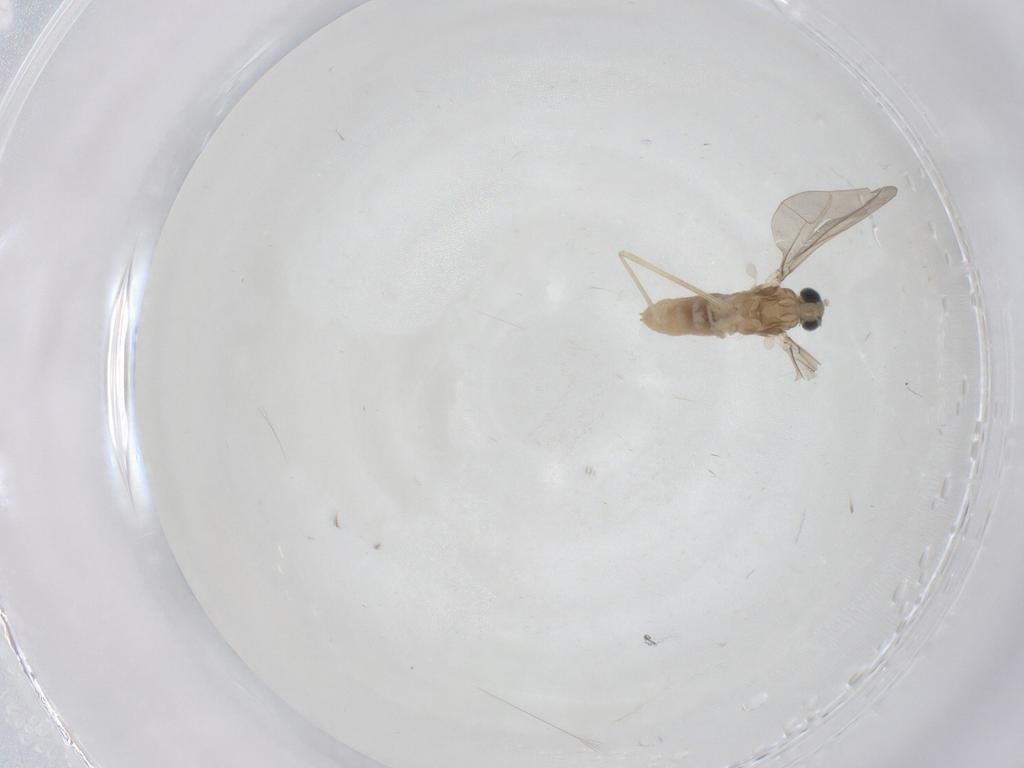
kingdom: Animalia
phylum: Arthropoda
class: Insecta
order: Diptera
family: Cecidomyiidae
